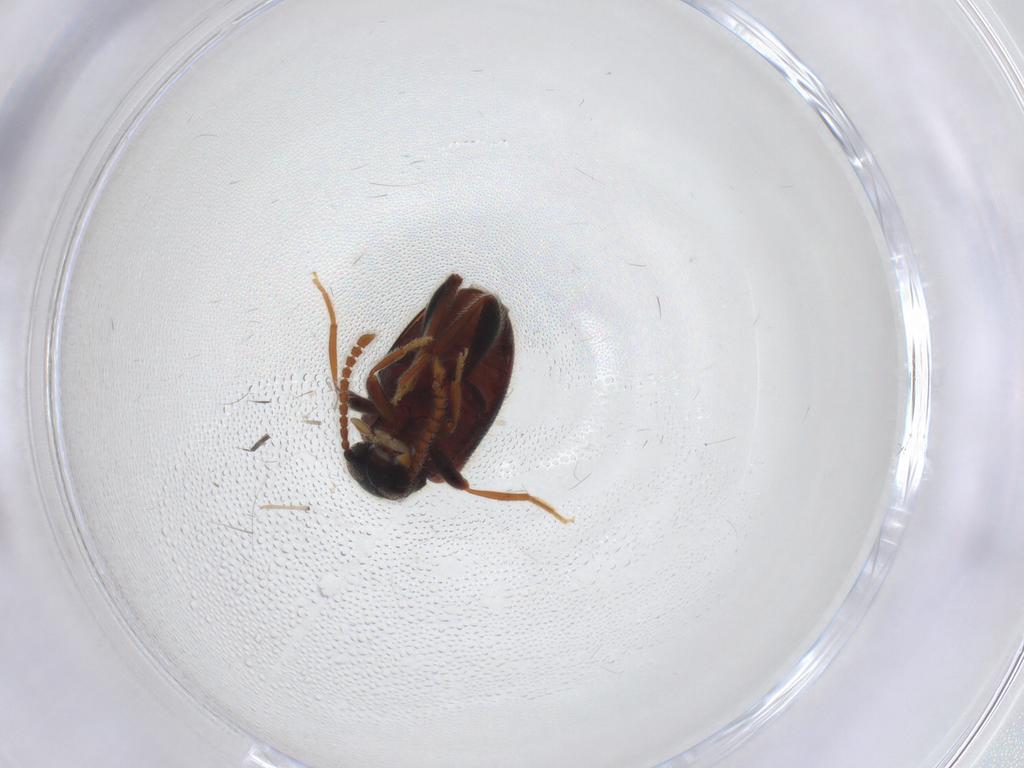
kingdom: Animalia
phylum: Arthropoda
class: Insecta
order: Coleoptera
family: Aderidae
